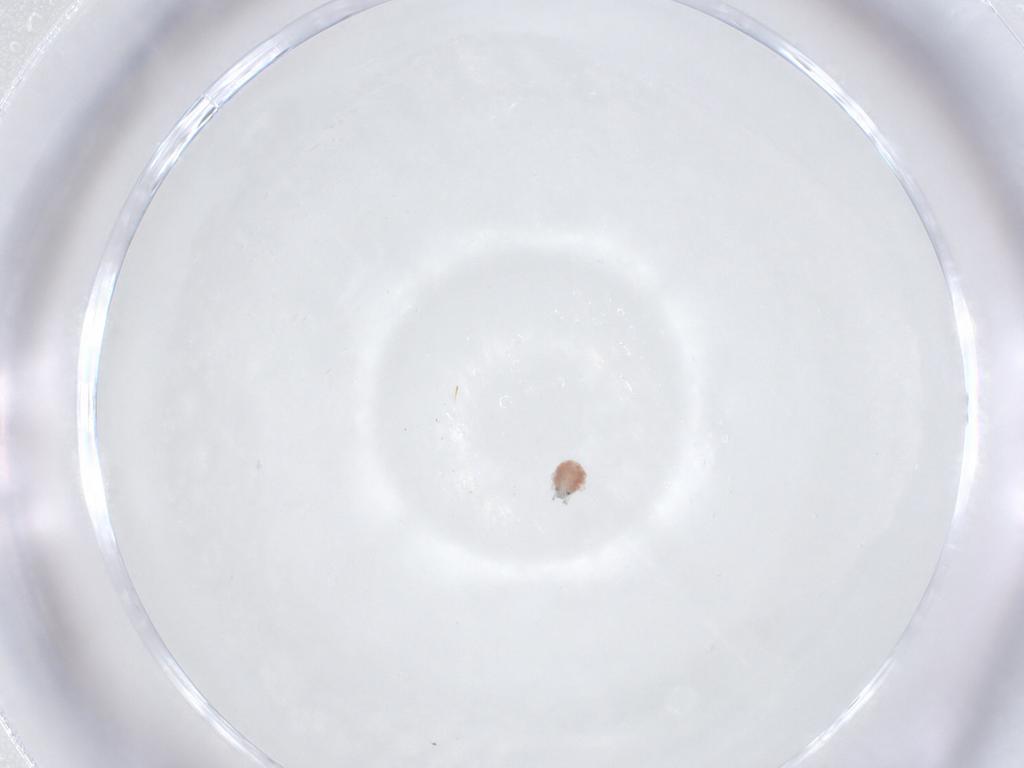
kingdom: Animalia
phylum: Arthropoda
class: Arachnida
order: Trombidiformes
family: Pionidae
